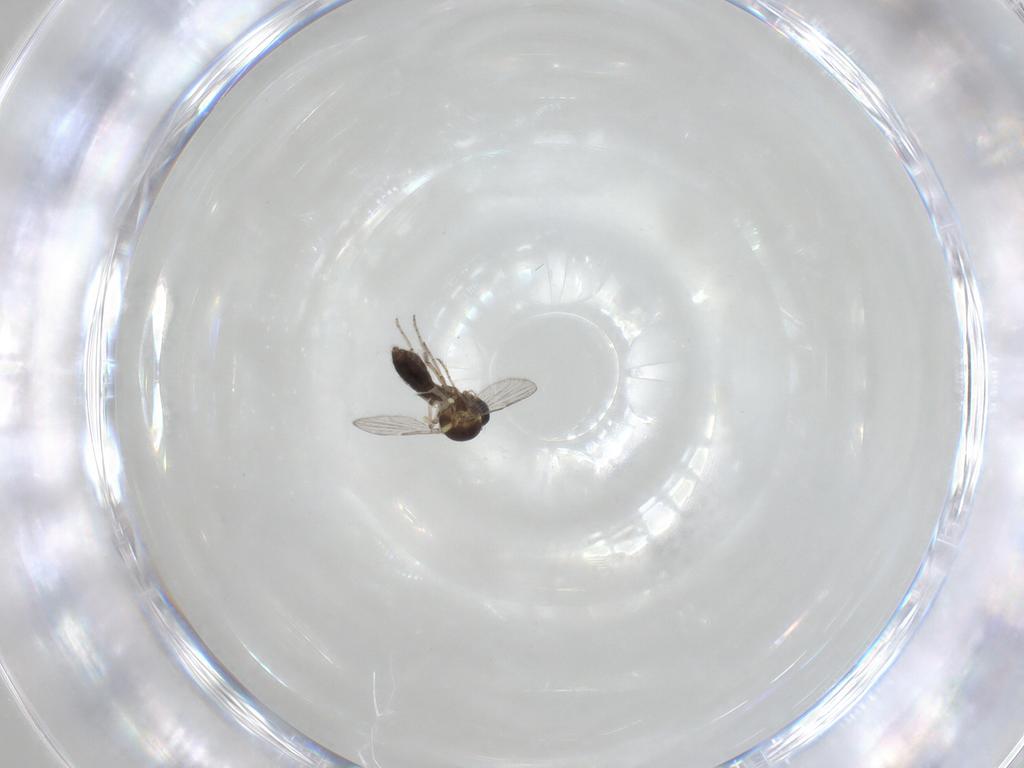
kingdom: Animalia
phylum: Arthropoda
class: Insecta
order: Diptera
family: Ceratopogonidae
